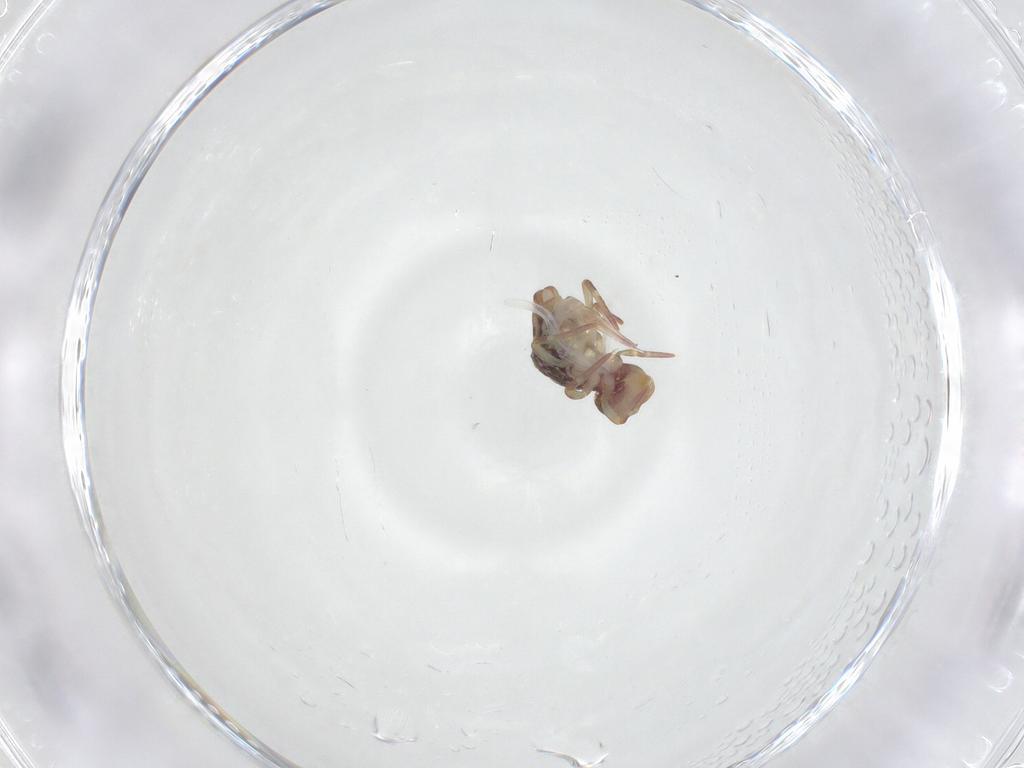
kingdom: Animalia
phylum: Arthropoda
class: Collembola
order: Symphypleona
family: Dicyrtomidae
